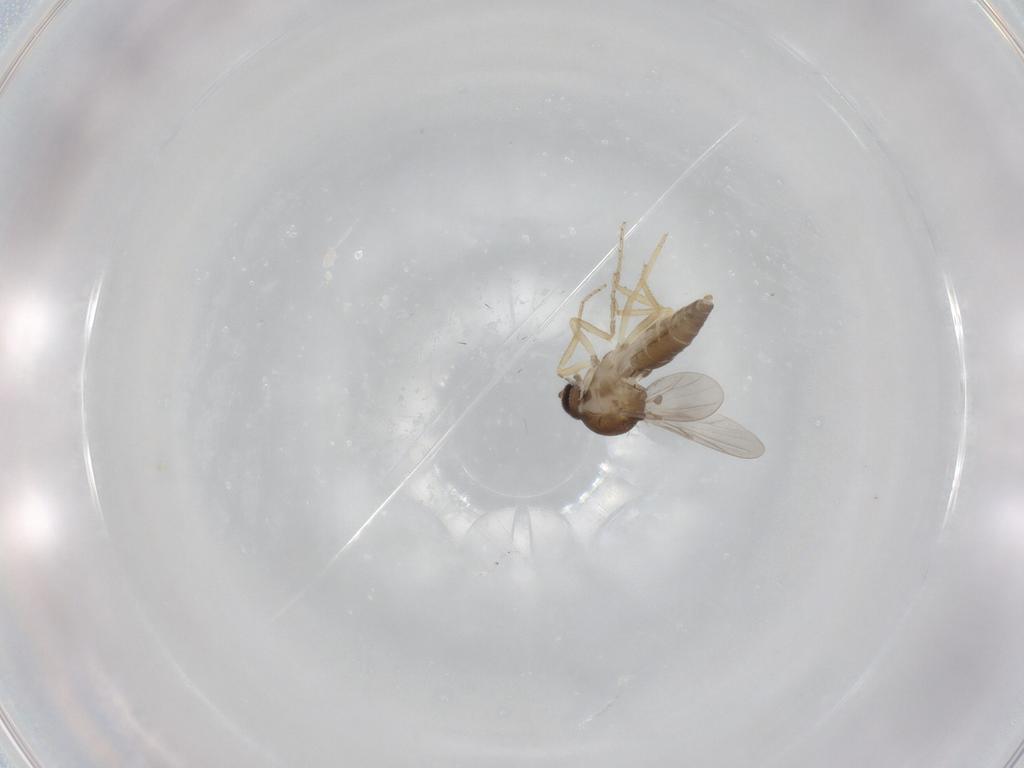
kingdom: Animalia
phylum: Arthropoda
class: Insecta
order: Diptera
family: Ceratopogonidae
